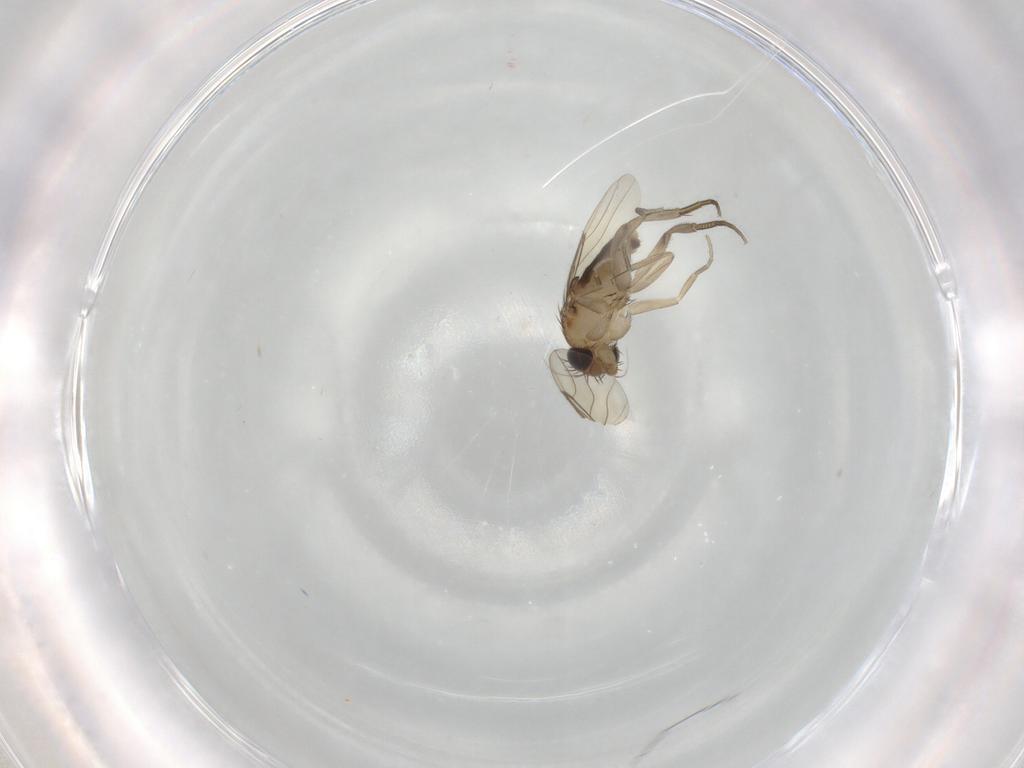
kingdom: Animalia
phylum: Arthropoda
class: Insecta
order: Diptera
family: Phoridae
